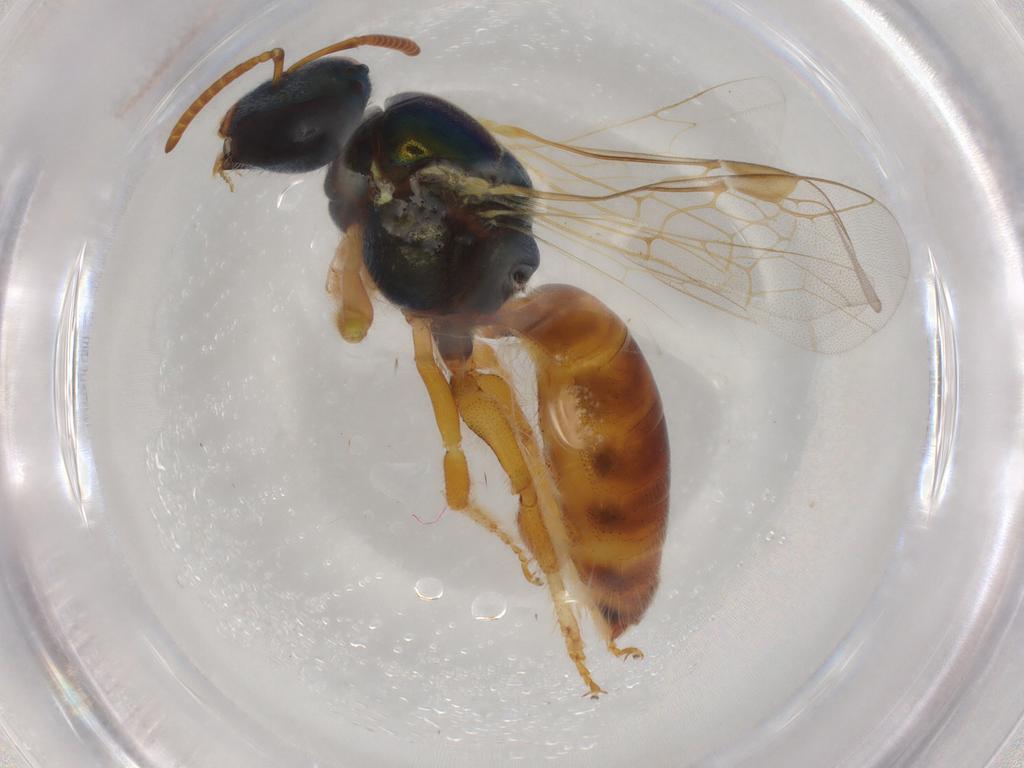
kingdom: Animalia
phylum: Arthropoda
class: Insecta
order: Hymenoptera
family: Halictidae
